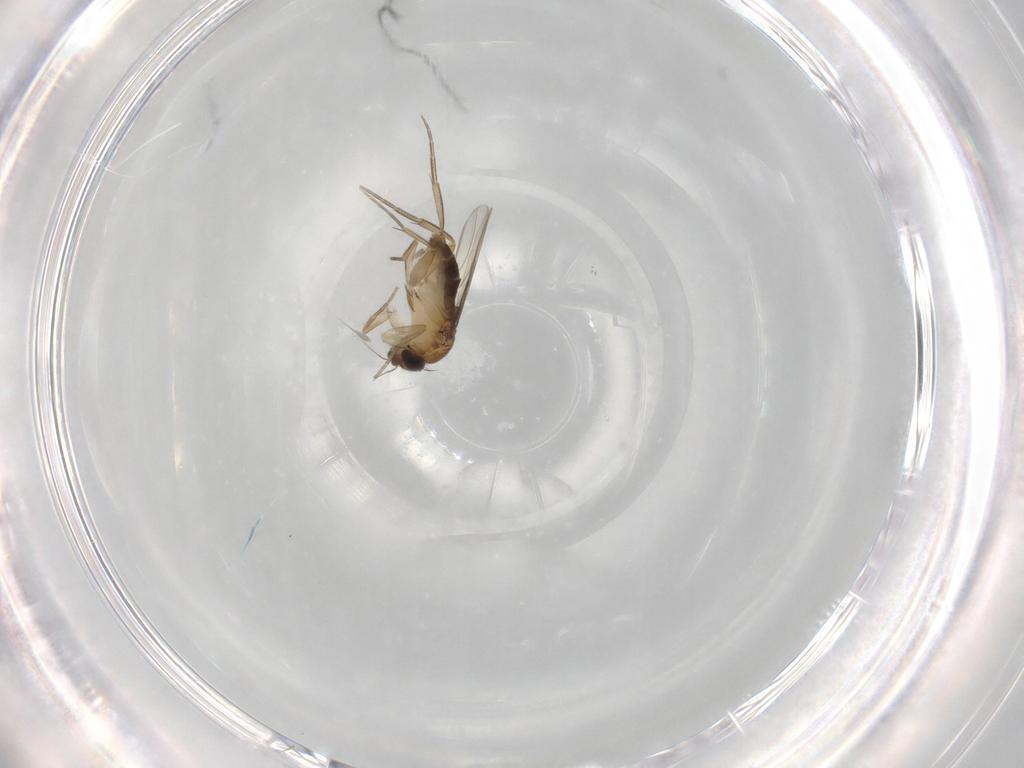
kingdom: Animalia
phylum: Arthropoda
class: Insecta
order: Diptera
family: Phoridae
